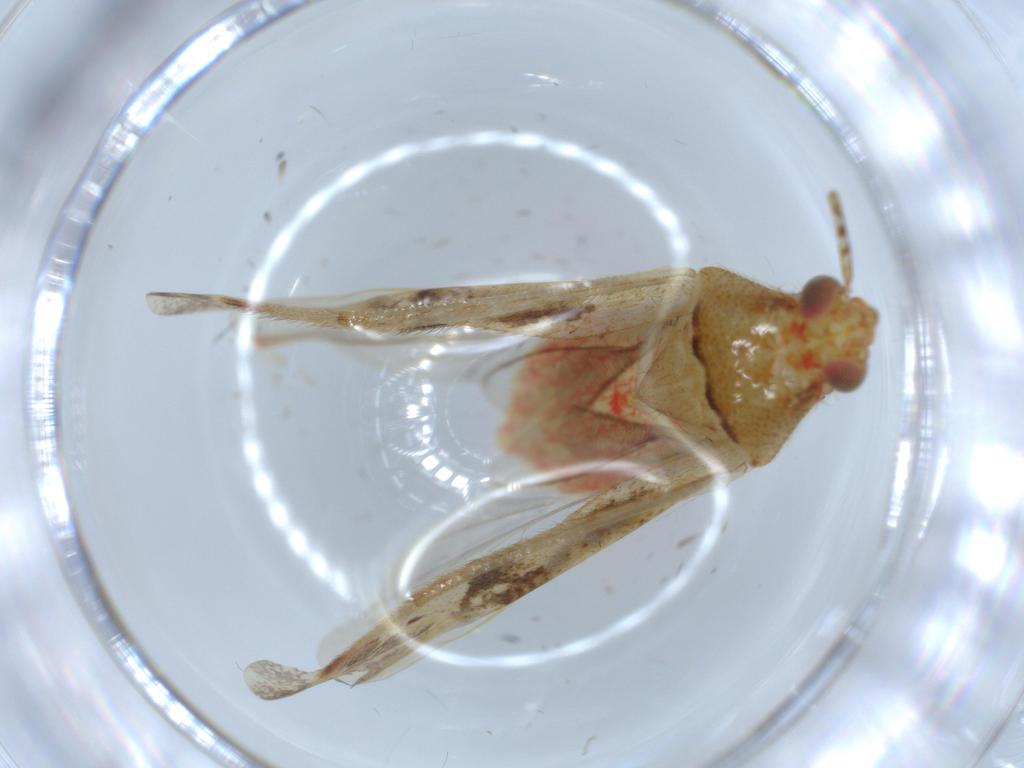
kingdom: Animalia
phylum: Arthropoda
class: Insecta
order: Hemiptera
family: Miridae
